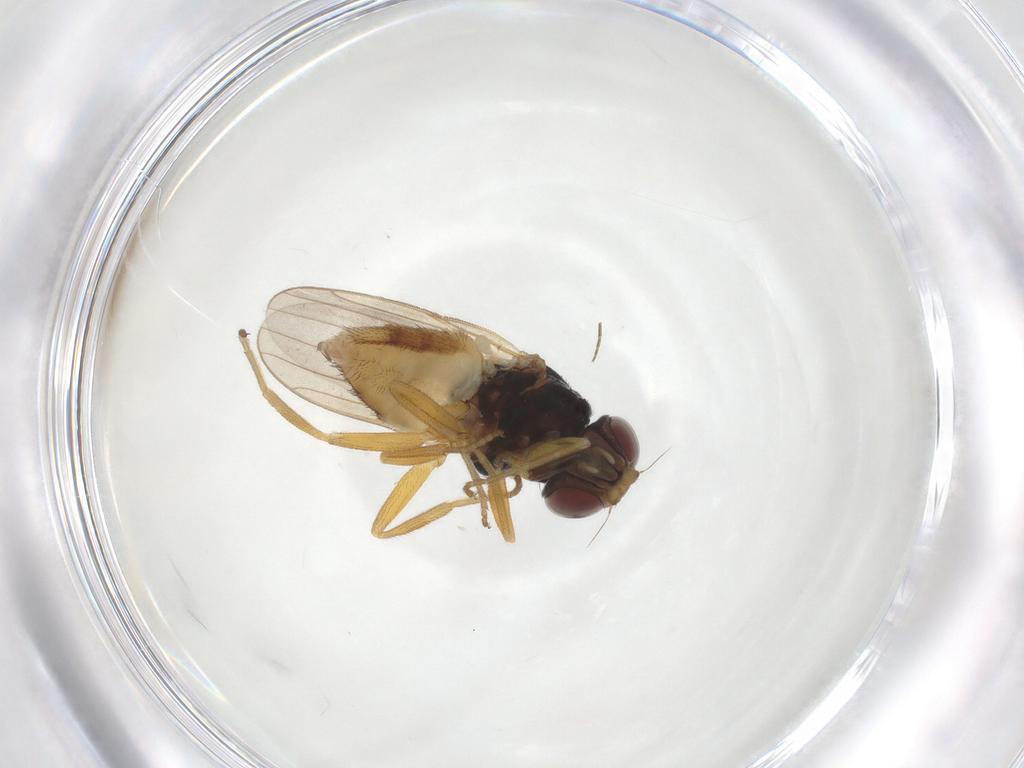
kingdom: Animalia
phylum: Arthropoda
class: Insecta
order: Diptera
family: Chloropidae
